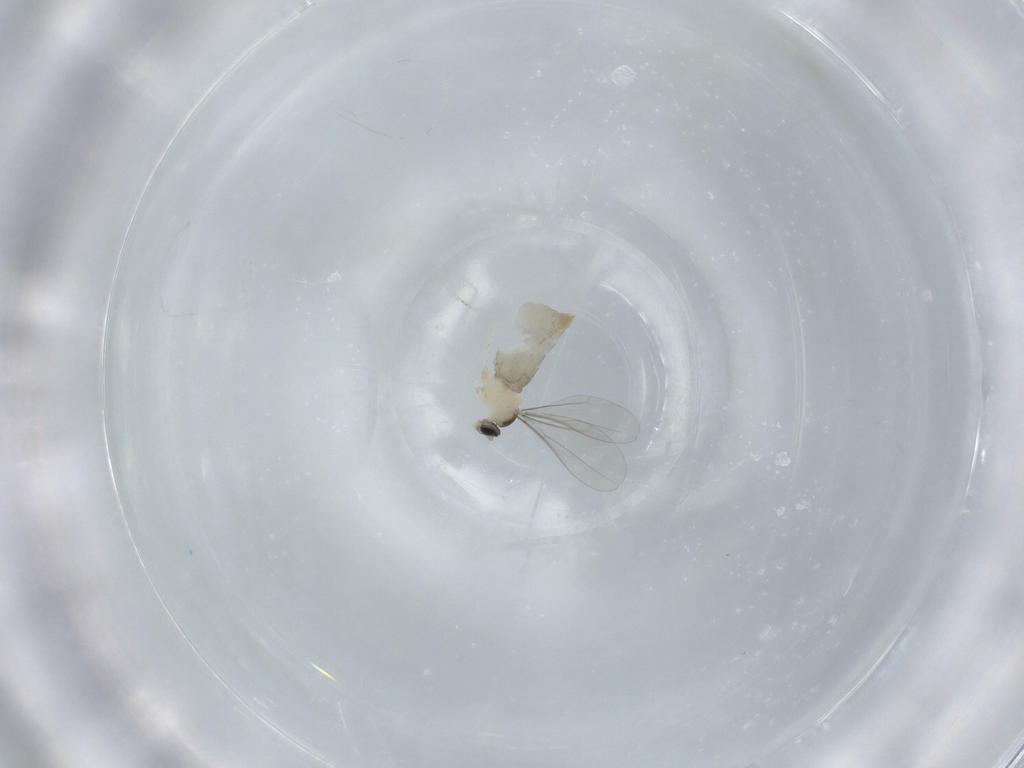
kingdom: Animalia
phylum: Arthropoda
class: Insecta
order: Diptera
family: Phoridae
